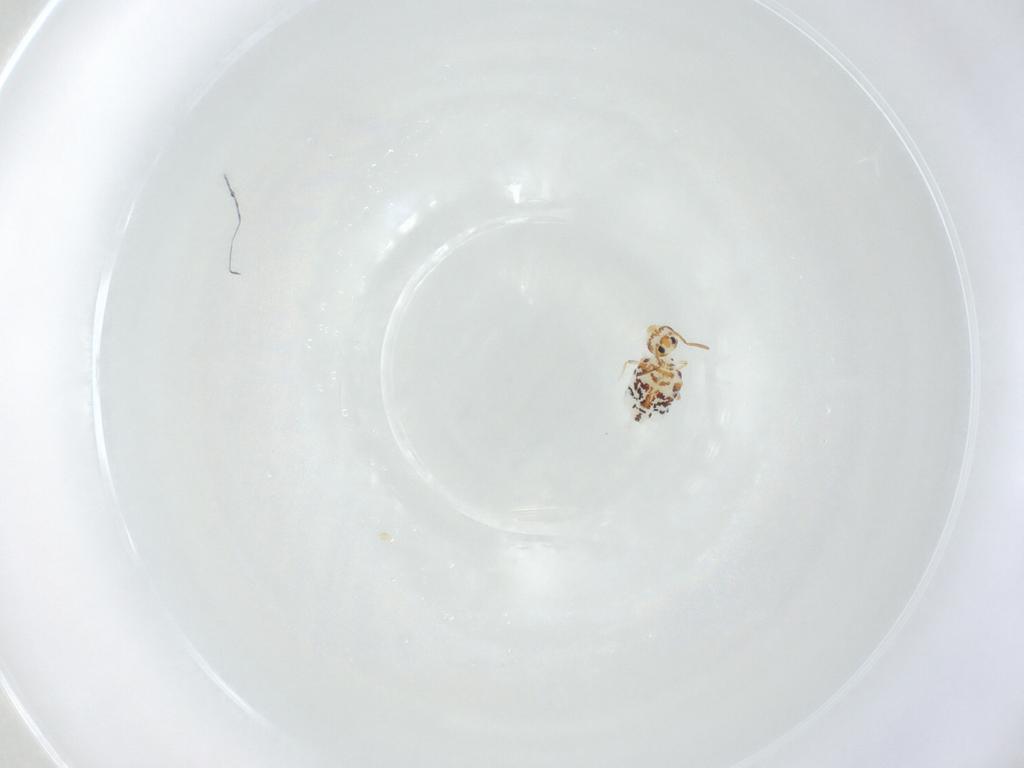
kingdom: Animalia
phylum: Arthropoda
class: Collembola
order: Symphypleona
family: Bourletiellidae
